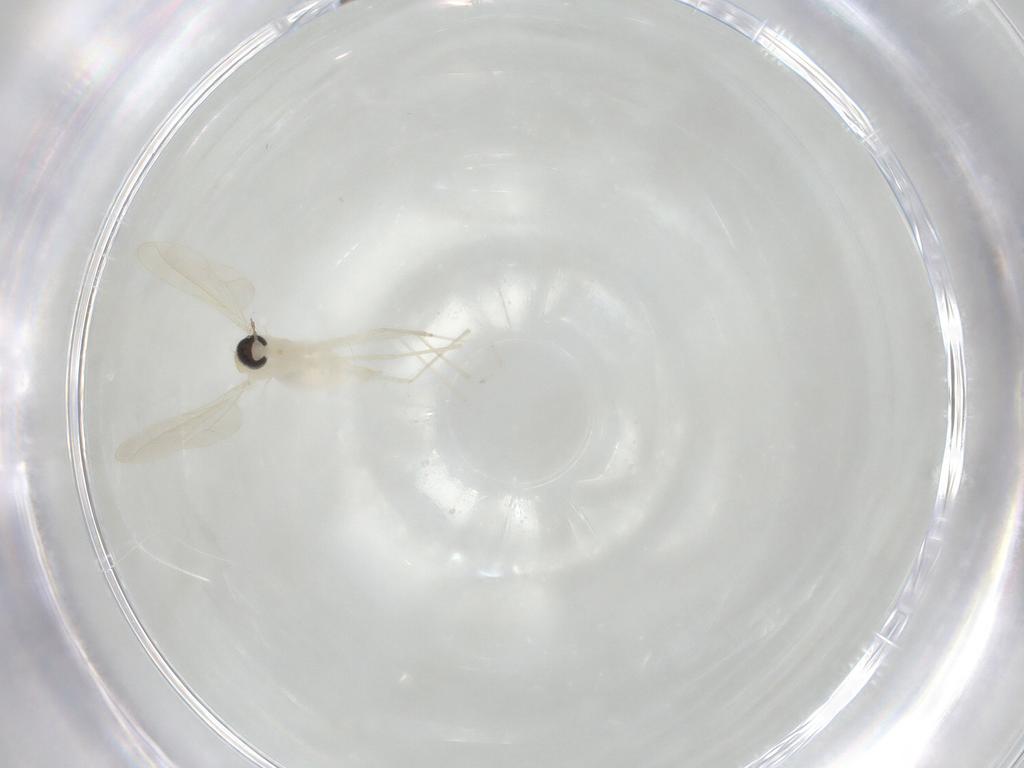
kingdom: Animalia
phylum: Arthropoda
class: Insecta
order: Diptera
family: Cecidomyiidae
